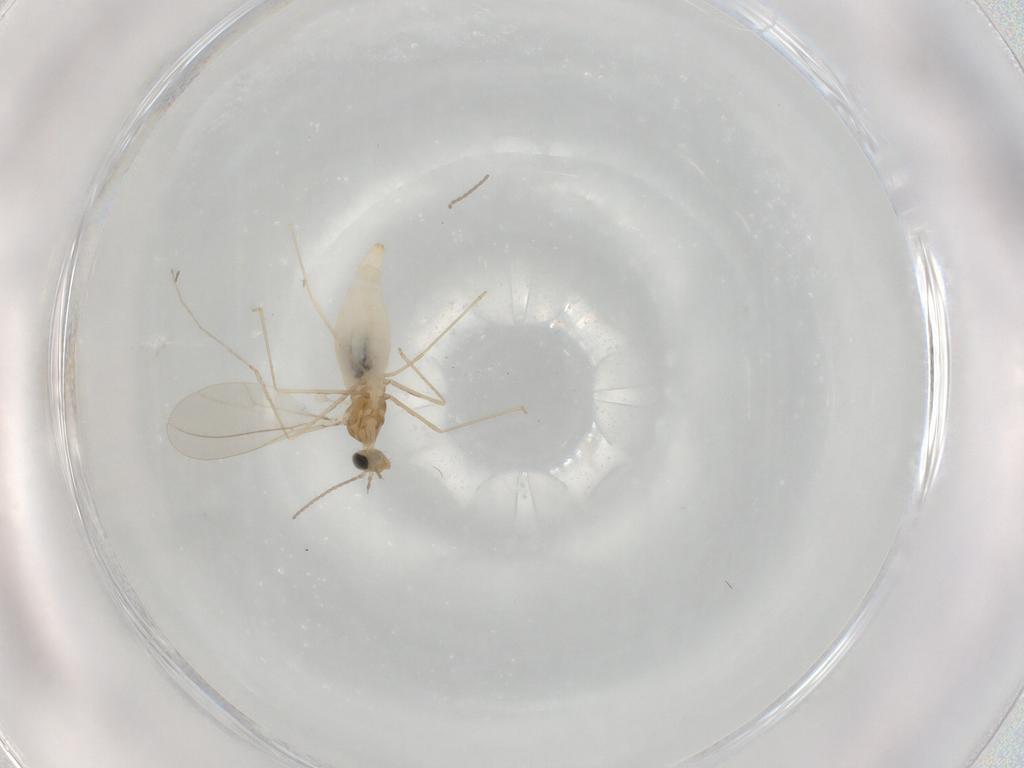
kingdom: Animalia
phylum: Arthropoda
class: Insecta
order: Diptera
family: Cecidomyiidae
